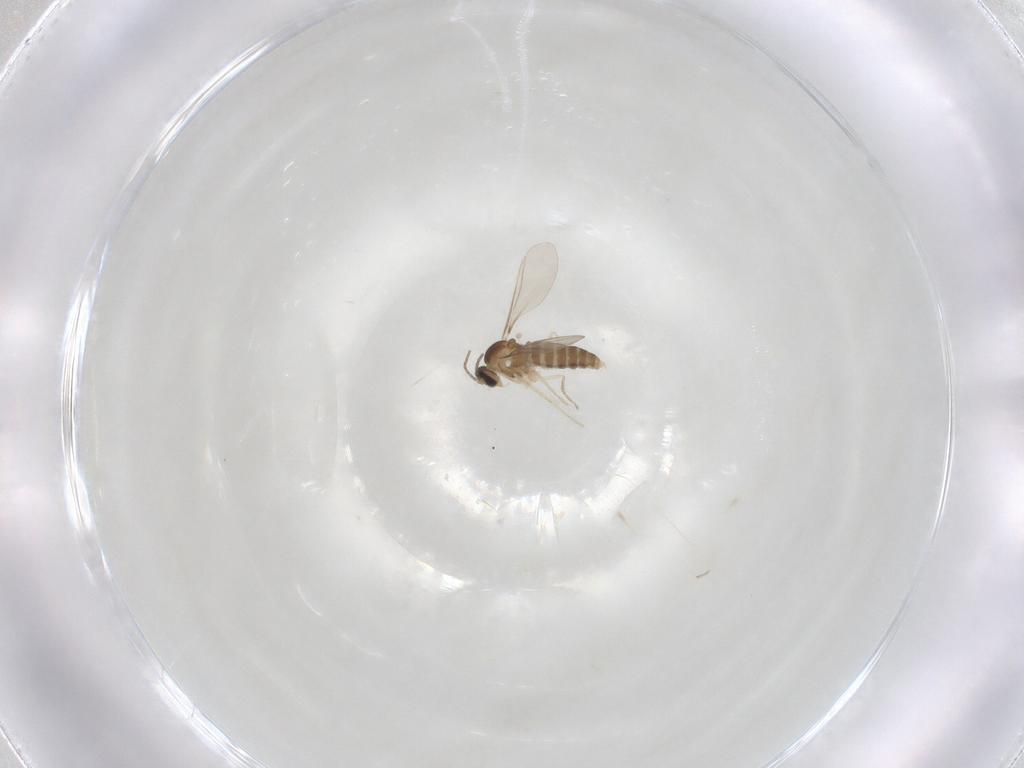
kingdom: Animalia
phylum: Arthropoda
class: Insecta
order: Diptera
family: Cecidomyiidae
